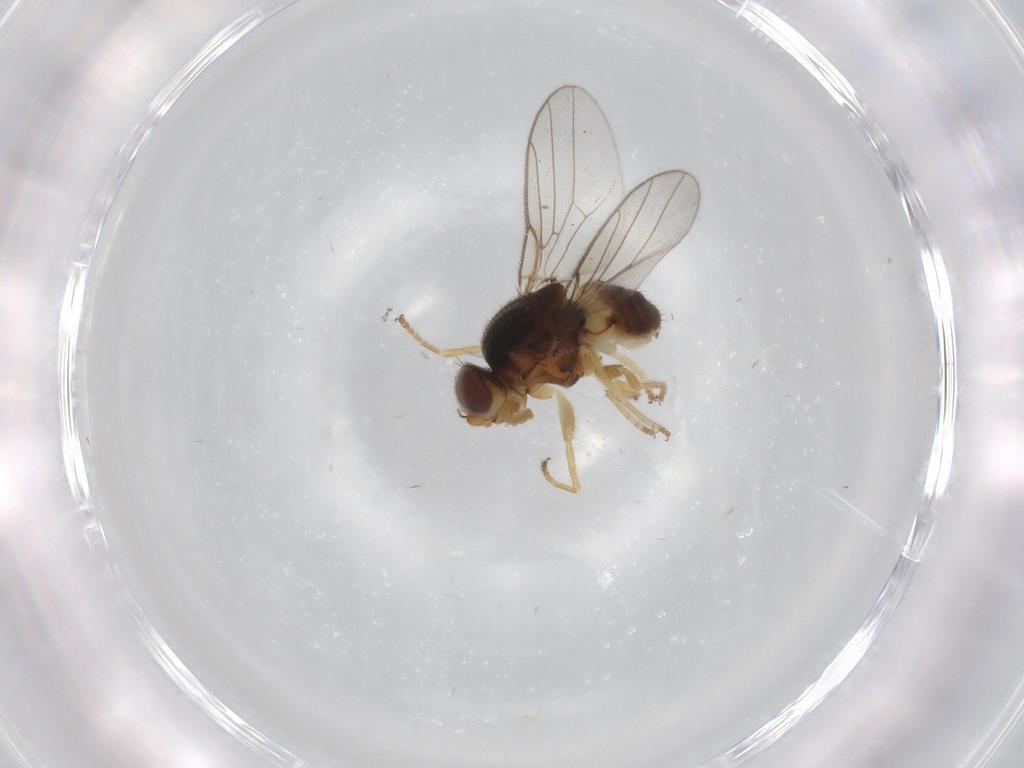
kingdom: Animalia
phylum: Arthropoda
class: Insecta
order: Diptera
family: Chloropidae
